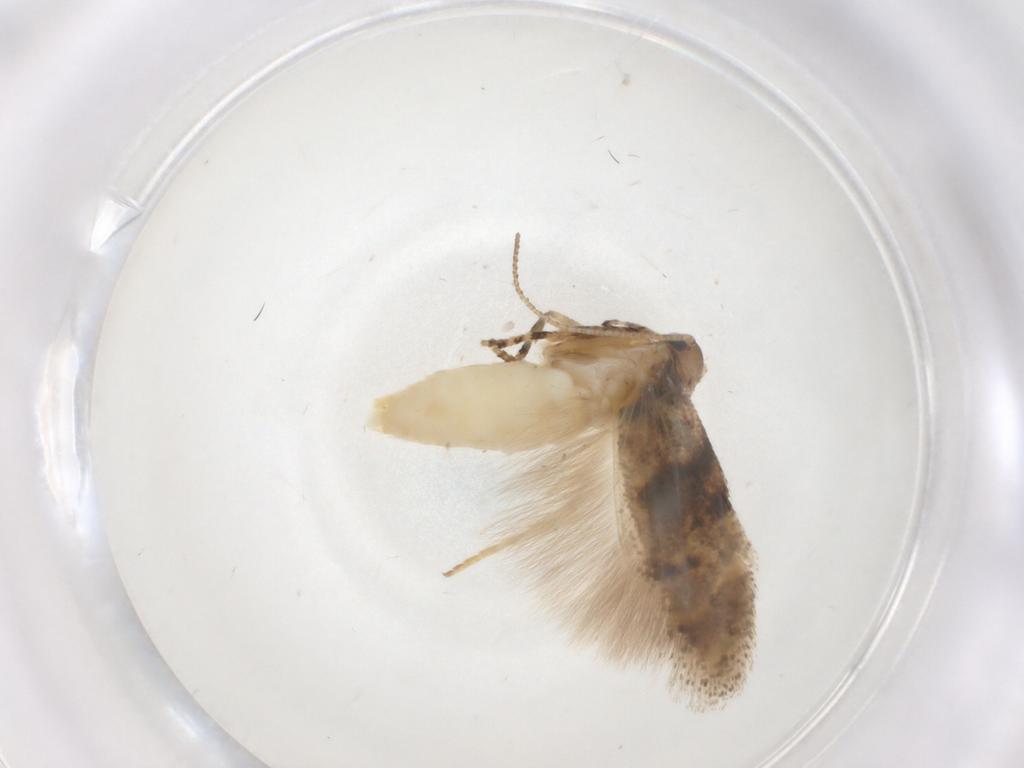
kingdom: Animalia
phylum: Arthropoda
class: Insecta
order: Lepidoptera
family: Gelechiidae
